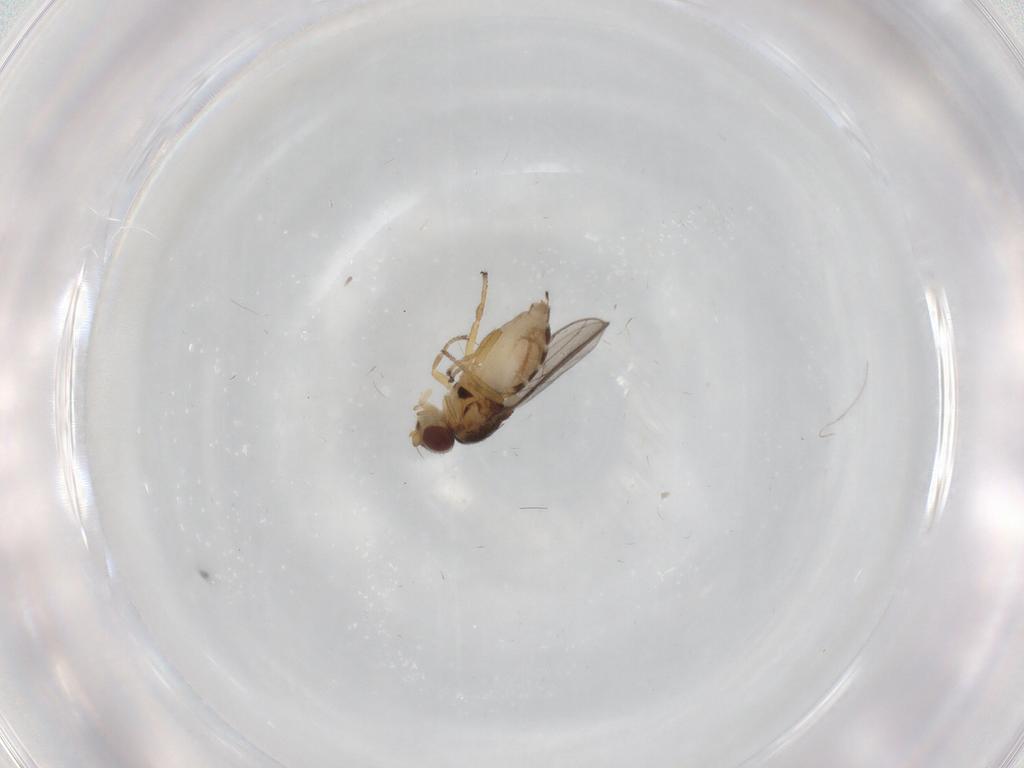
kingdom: Animalia
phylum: Arthropoda
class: Insecta
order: Diptera
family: Chloropidae
